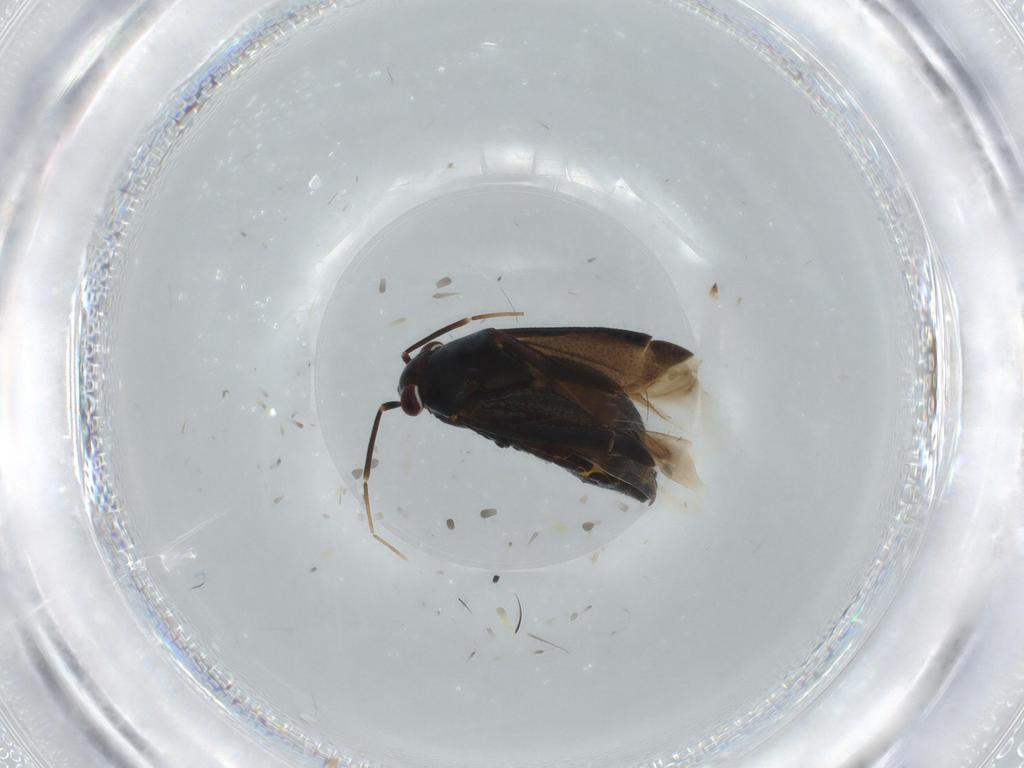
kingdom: Animalia
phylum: Arthropoda
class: Insecta
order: Hemiptera
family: Miridae
